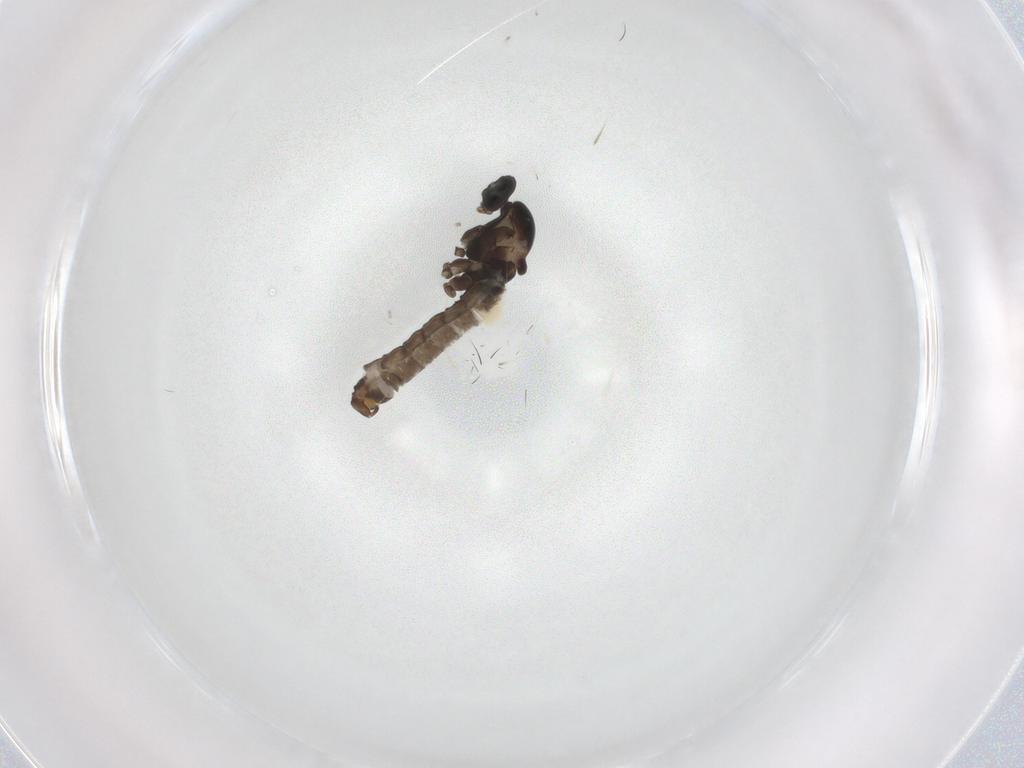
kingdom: Animalia
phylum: Arthropoda
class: Insecta
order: Diptera
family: Cecidomyiidae
